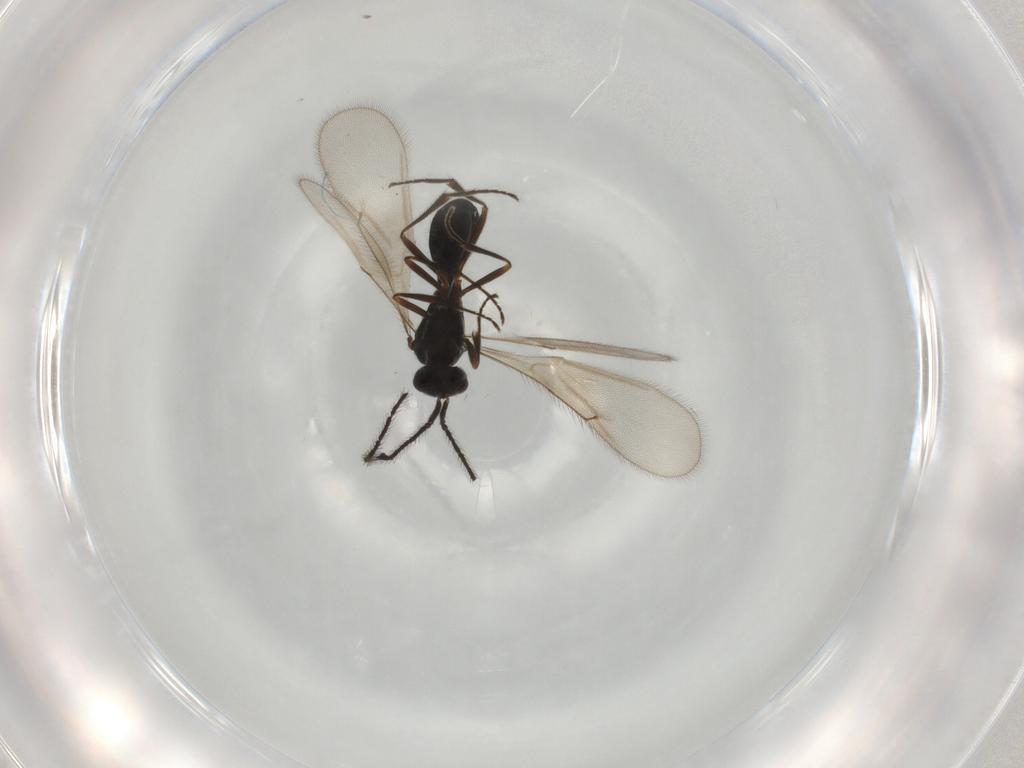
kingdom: Animalia
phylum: Arthropoda
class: Insecta
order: Hymenoptera
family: Scelionidae
